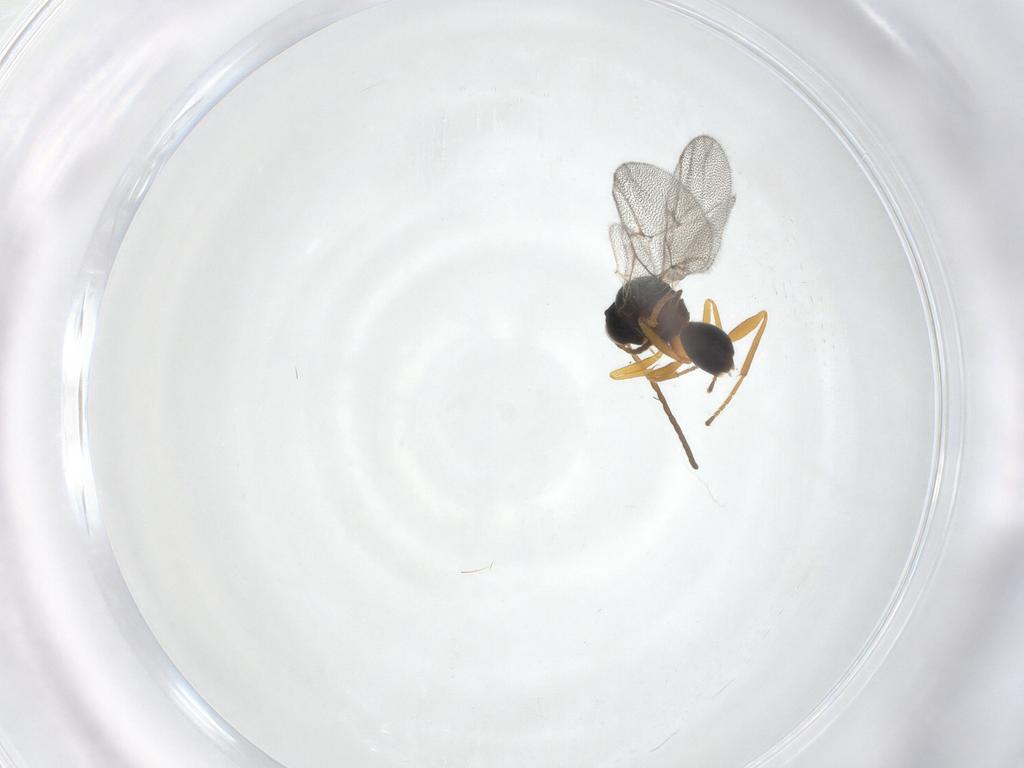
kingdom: Animalia
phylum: Arthropoda
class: Insecta
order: Hymenoptera
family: Cynipidae
